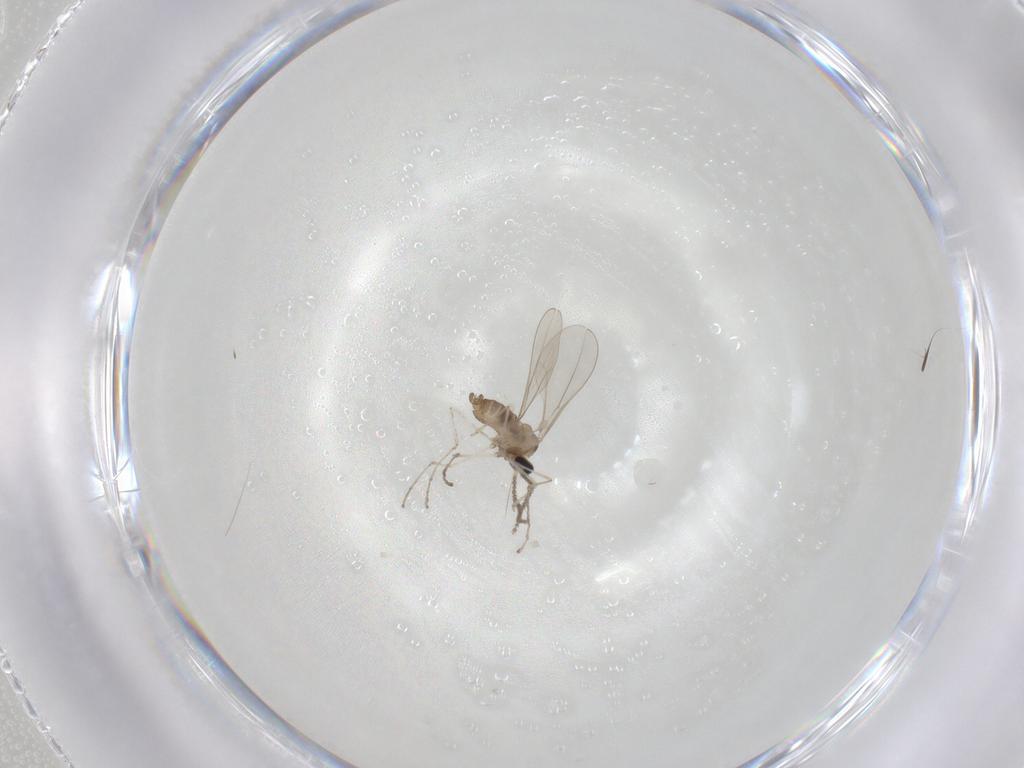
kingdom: Animalia
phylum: Arthropoda
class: Insecta
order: Diptera
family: Cecidomyiidae
